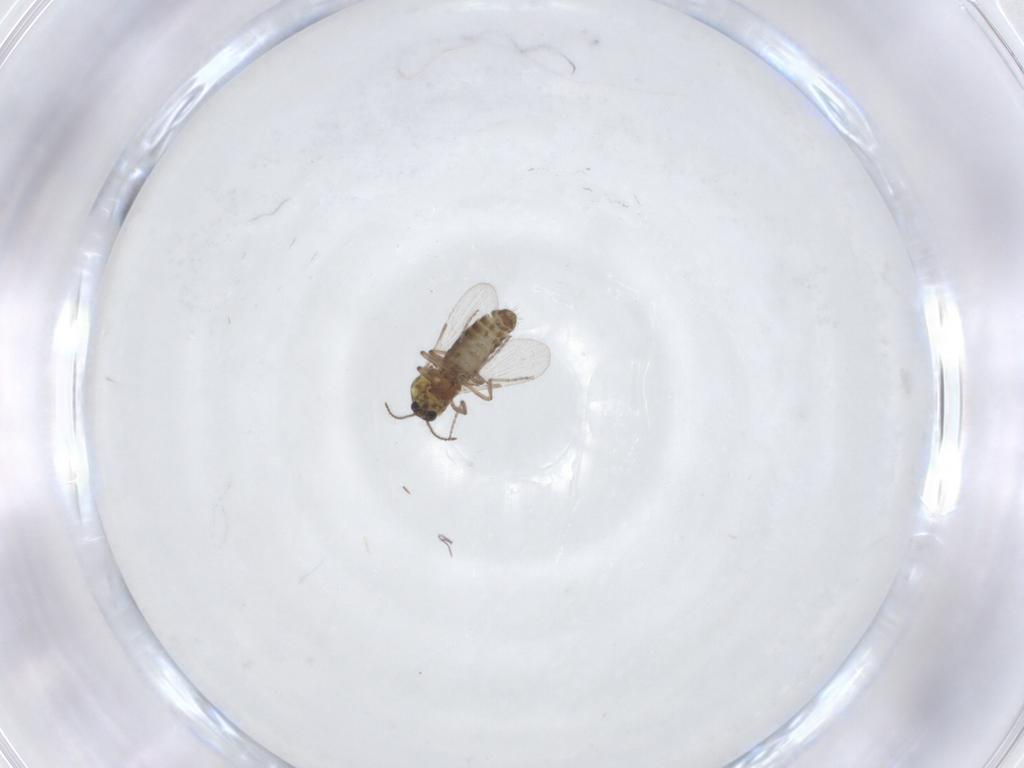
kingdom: Animalia
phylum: Arthropoda
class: Insecta
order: Diptera
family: Ceratopogonidae
